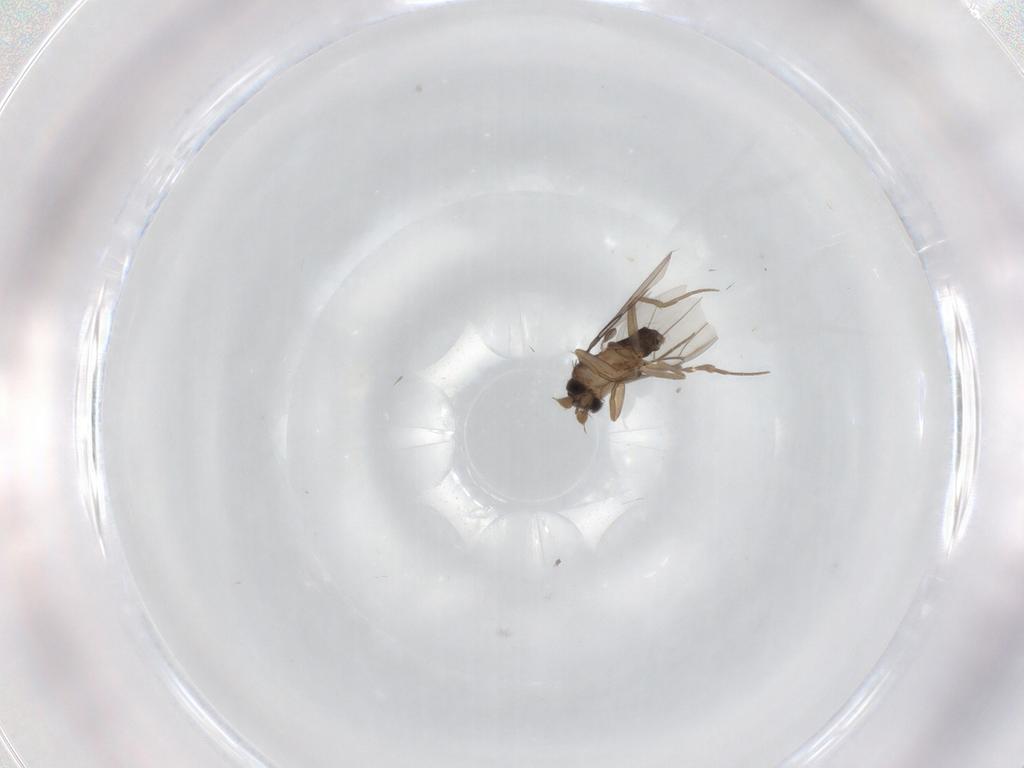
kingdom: Animalia
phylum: Arthropoda
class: Insecta
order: Diptera
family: Phoridae
